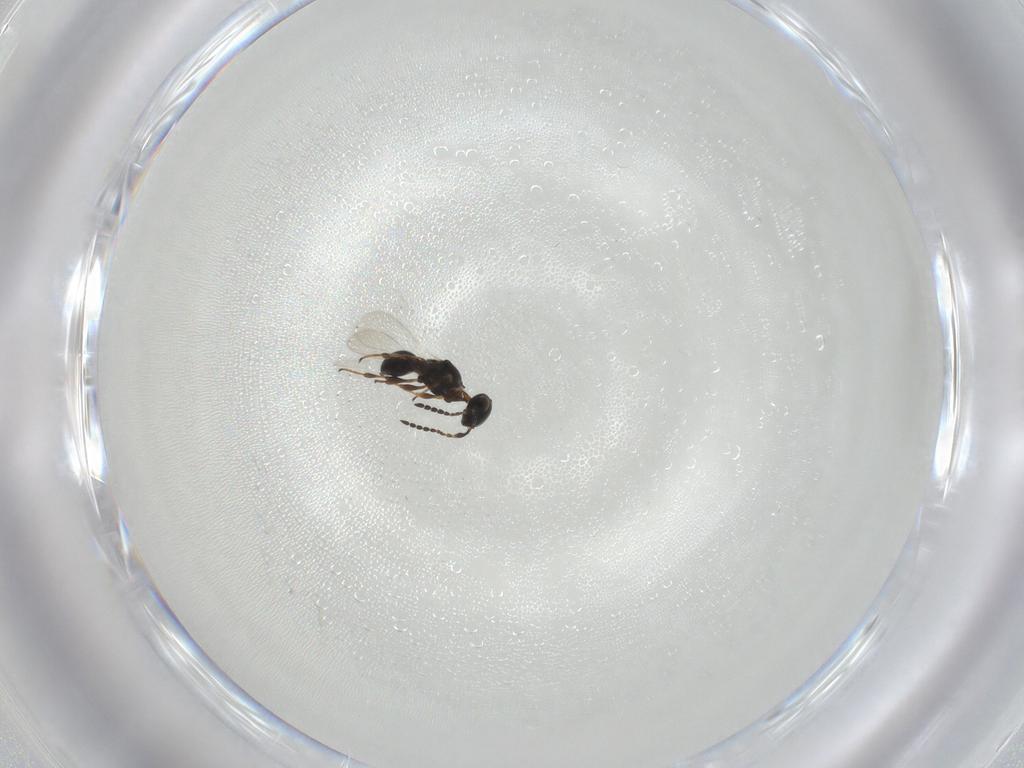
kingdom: Animalia
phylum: Arthropoda
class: Insecta
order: Hymenoptera
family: Platygastridae
